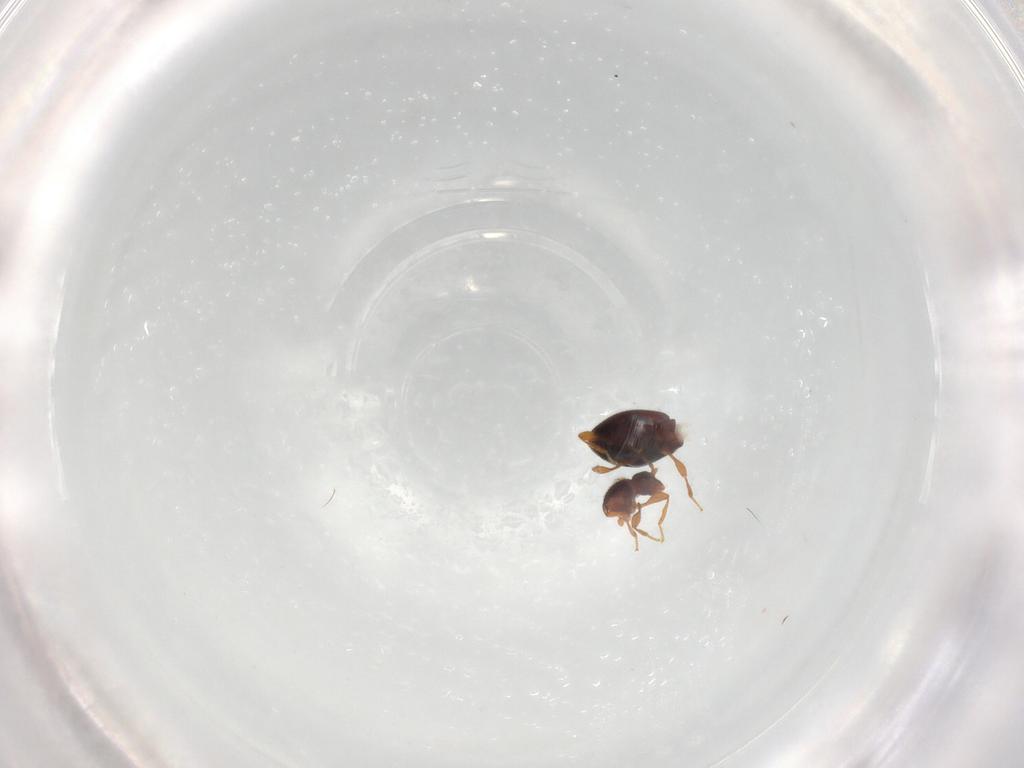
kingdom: Animalia
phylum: Arthropoda
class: Insecta
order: Coleoptera
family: Staphylinidae
